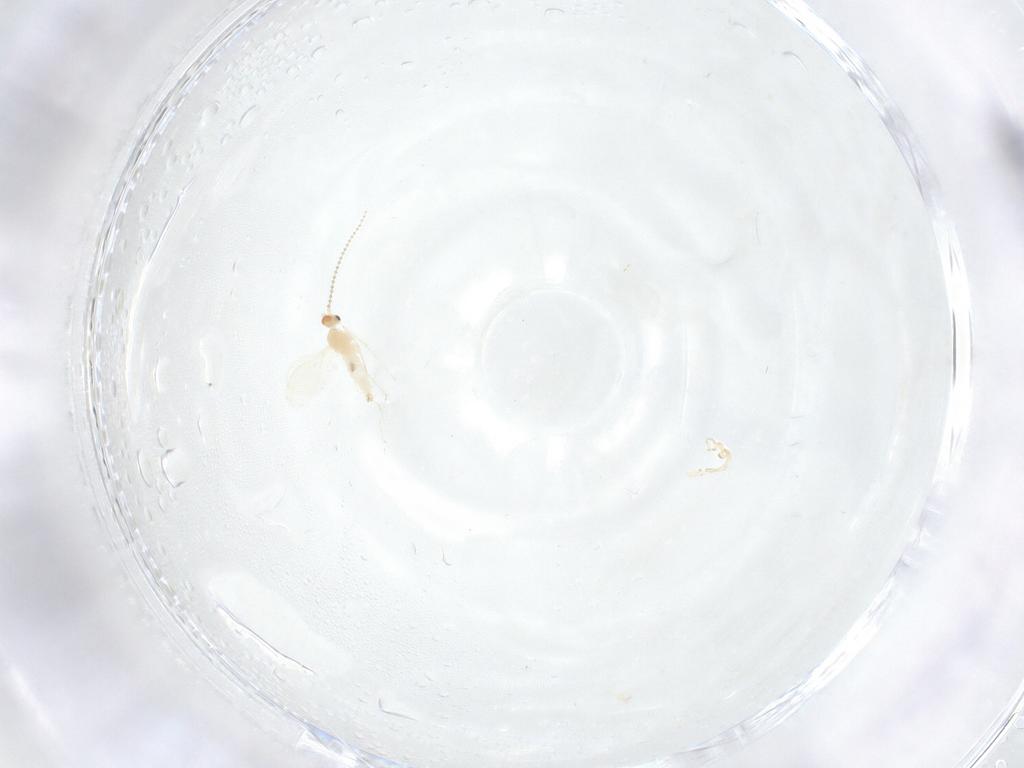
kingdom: Animalia
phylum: Arthropoda
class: Insecta
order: Diptera
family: Cecidomyiidae
